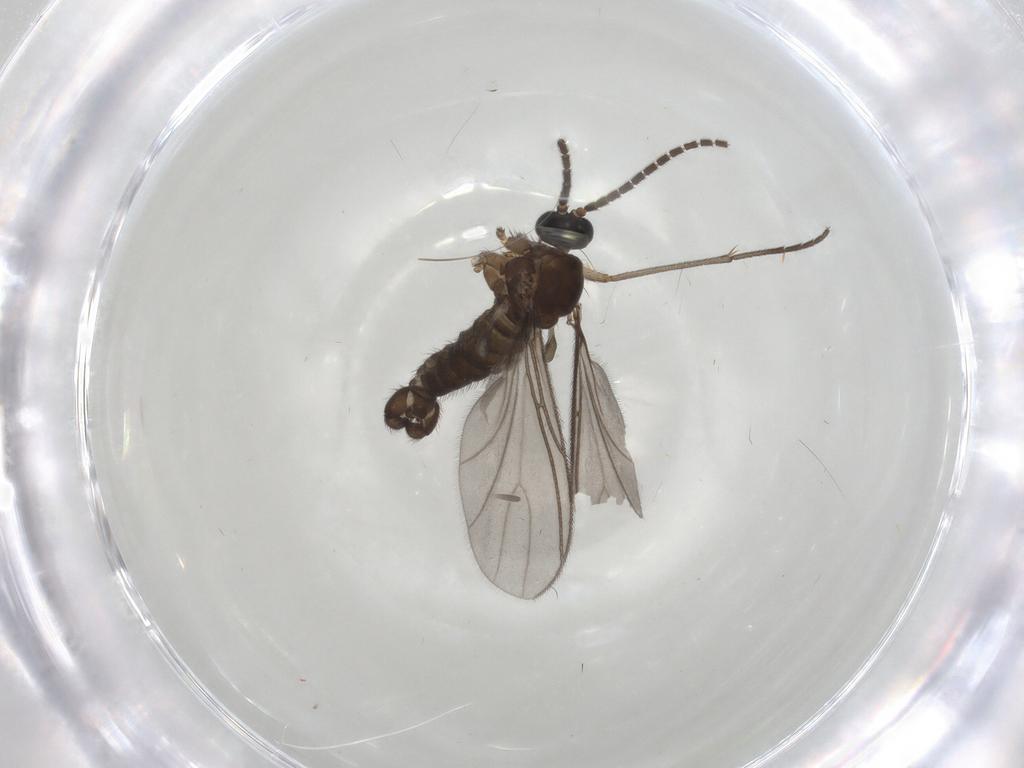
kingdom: Animalia
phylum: Arthropoda
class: Insecta
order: Diptera
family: Sciaridae
